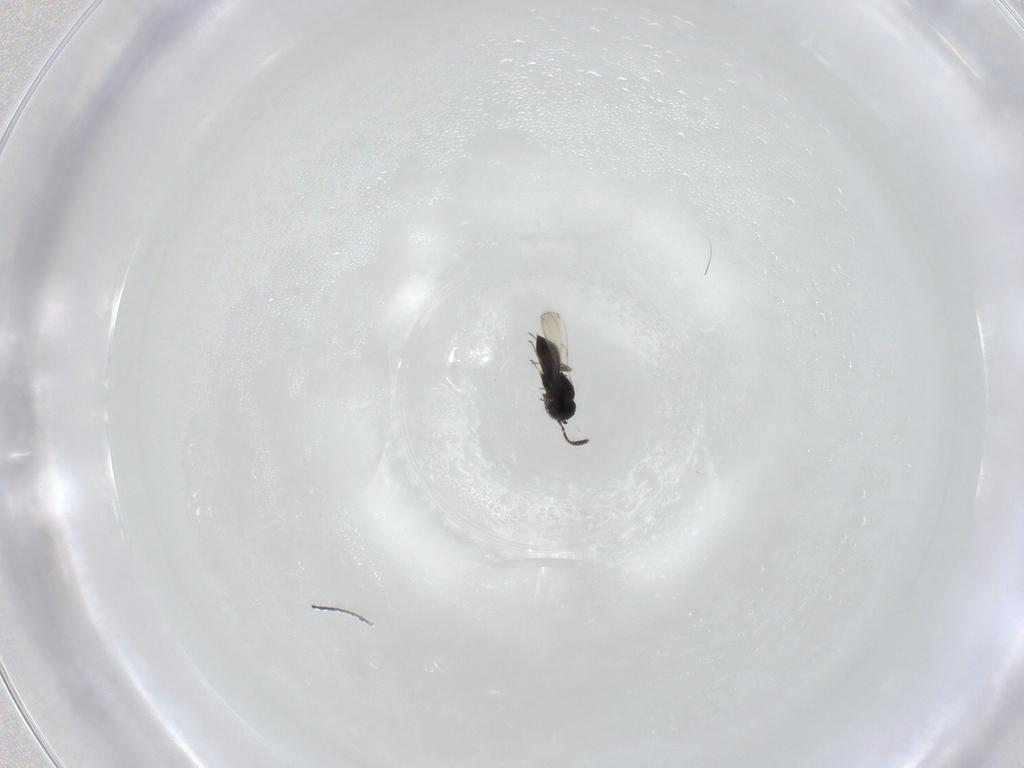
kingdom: Animalia
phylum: Arthropoda
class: Insecta
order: Hymenoptera
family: Scelionidae
